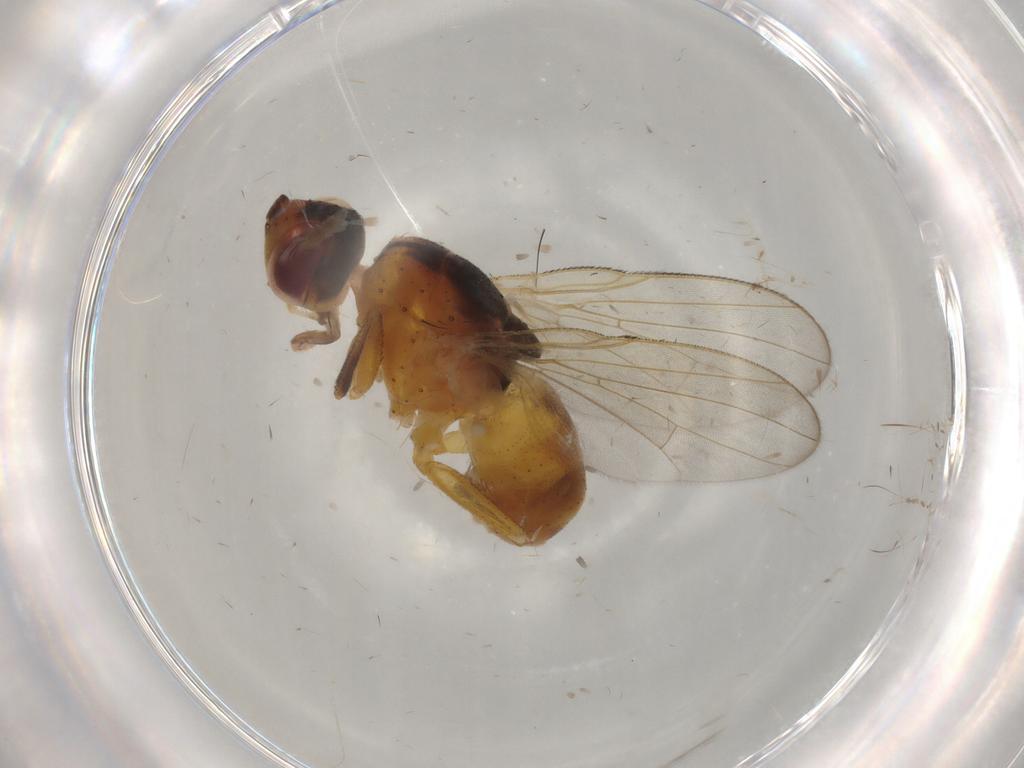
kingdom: Animalia
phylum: Arthropoda
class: Insecta
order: Diptera
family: Muscidae
